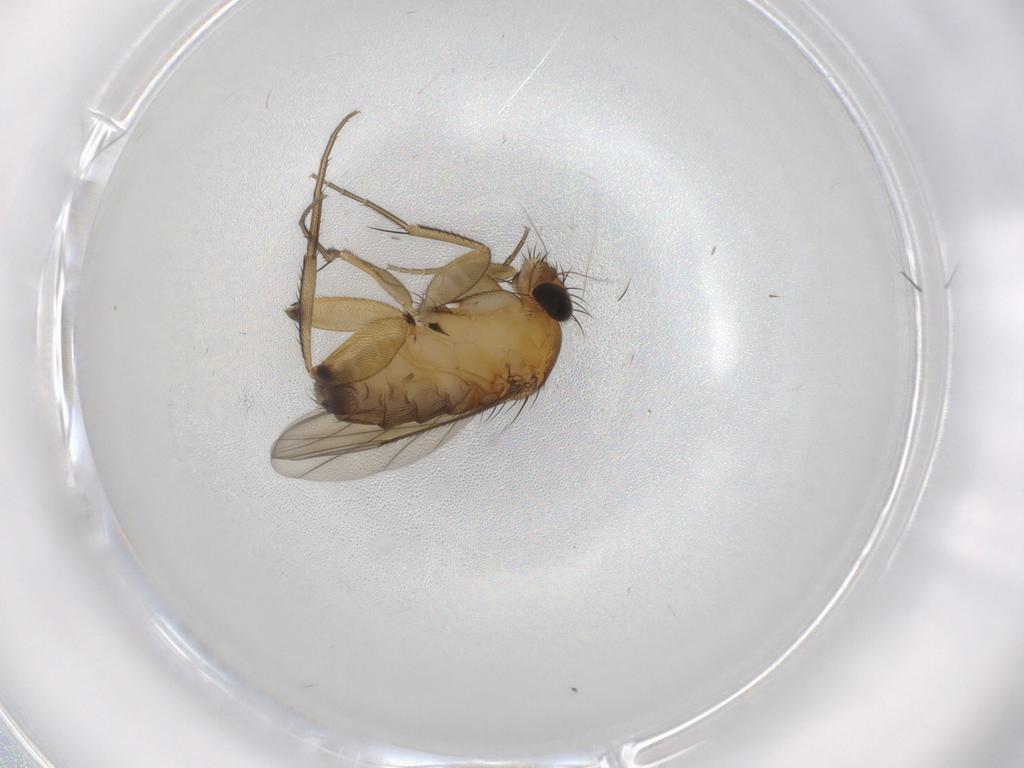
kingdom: Animalia
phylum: Arthropoda
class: Insecta
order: Diptera
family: Phoridae
